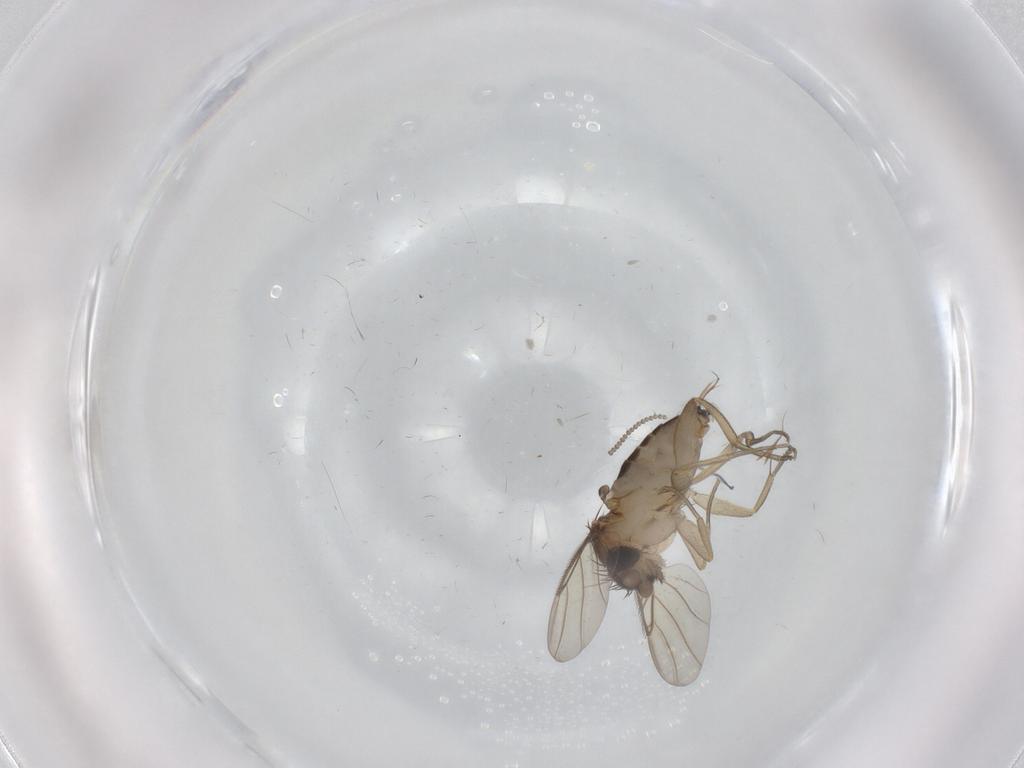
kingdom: Animalia
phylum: Arthropoda
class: Insecta
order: Diptera
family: Phoridae
